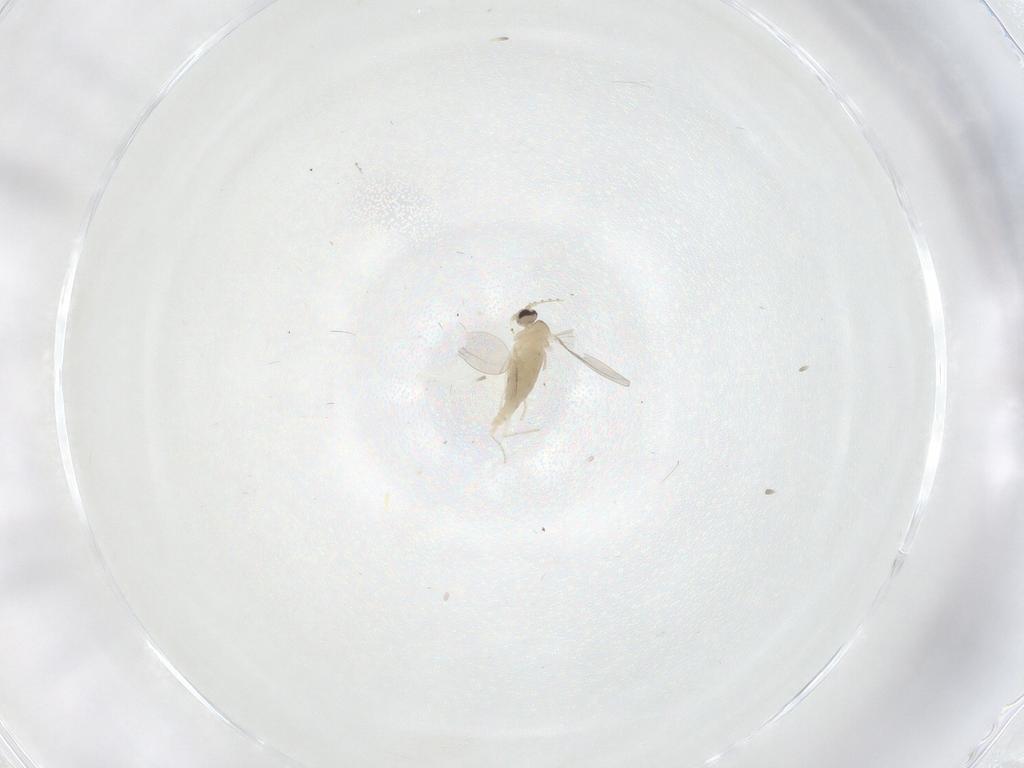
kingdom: Animalia
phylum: Arthropoda
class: Insecta
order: Diptera
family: Cecidomyiidae
